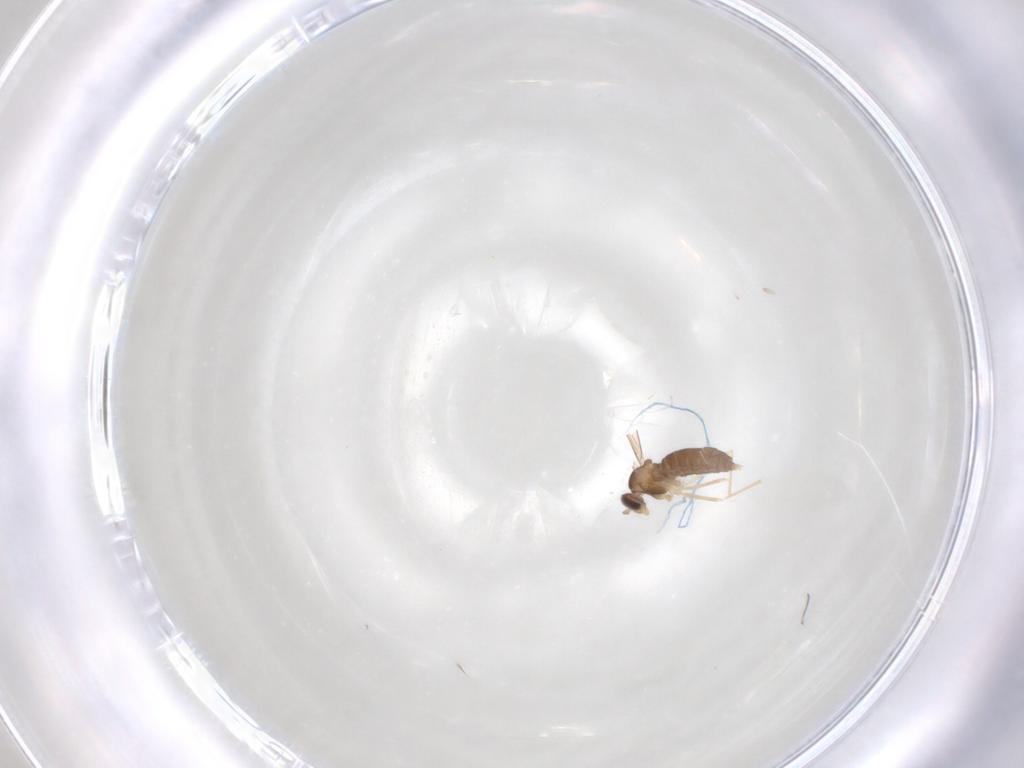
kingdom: Animalia
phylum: Arthropoda
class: Insecta
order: Diptera
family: Cecidomyiidae
